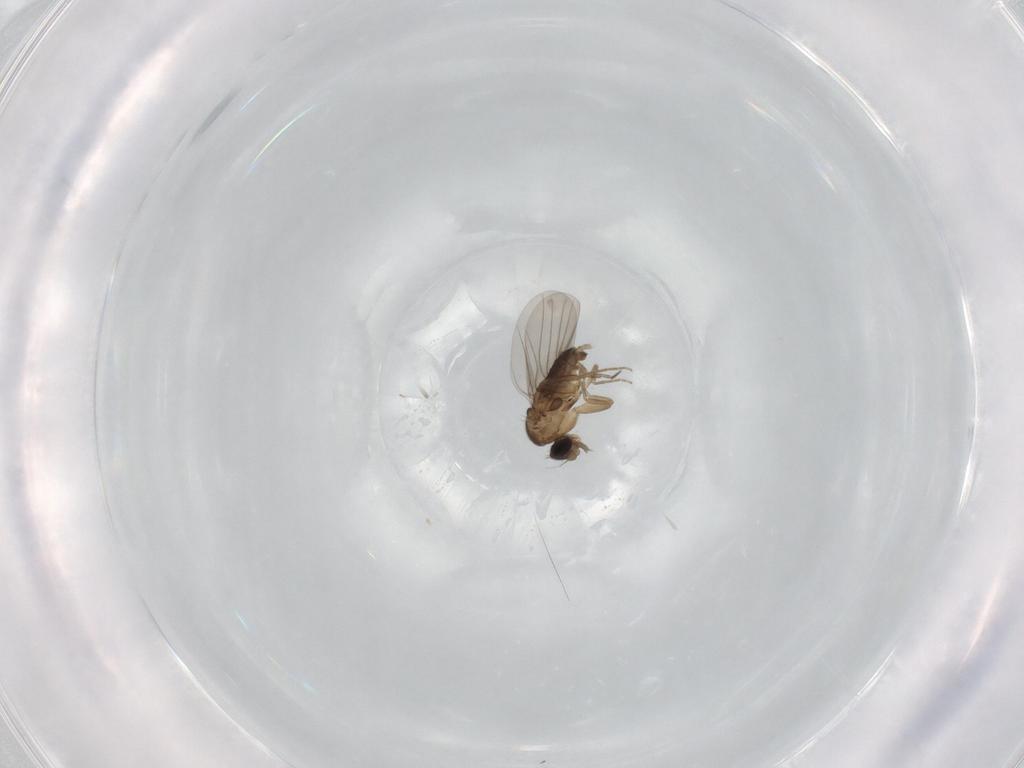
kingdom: Animalia
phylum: Arthropoda
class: Insecta
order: Diptera
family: Phoridae
